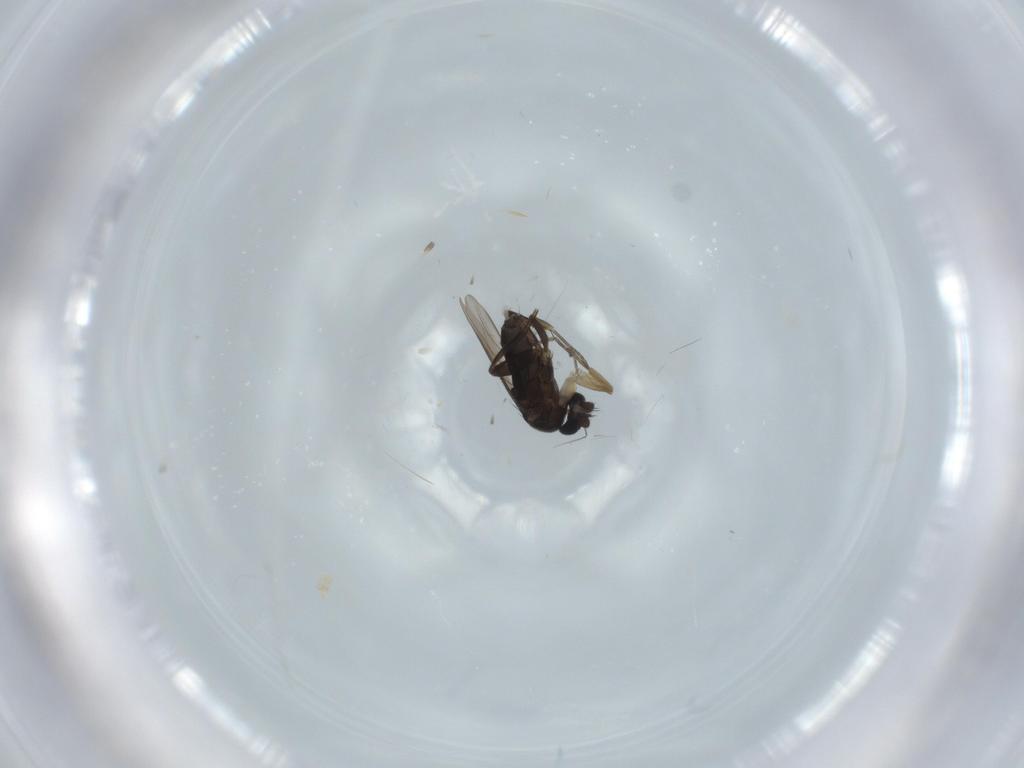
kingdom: Animalia
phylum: Arthropoda
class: Insecta
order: Diptera
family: Phoridae
